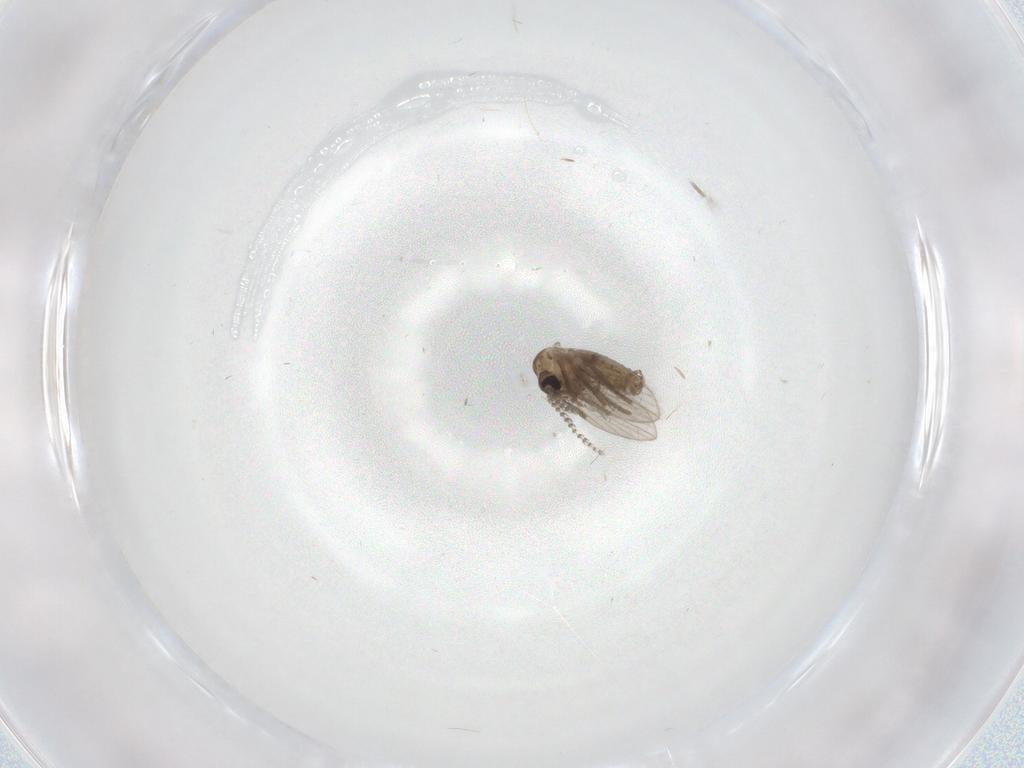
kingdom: Animalia
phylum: Arthropoda
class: Insecta
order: Diptera
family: Psychodidae
